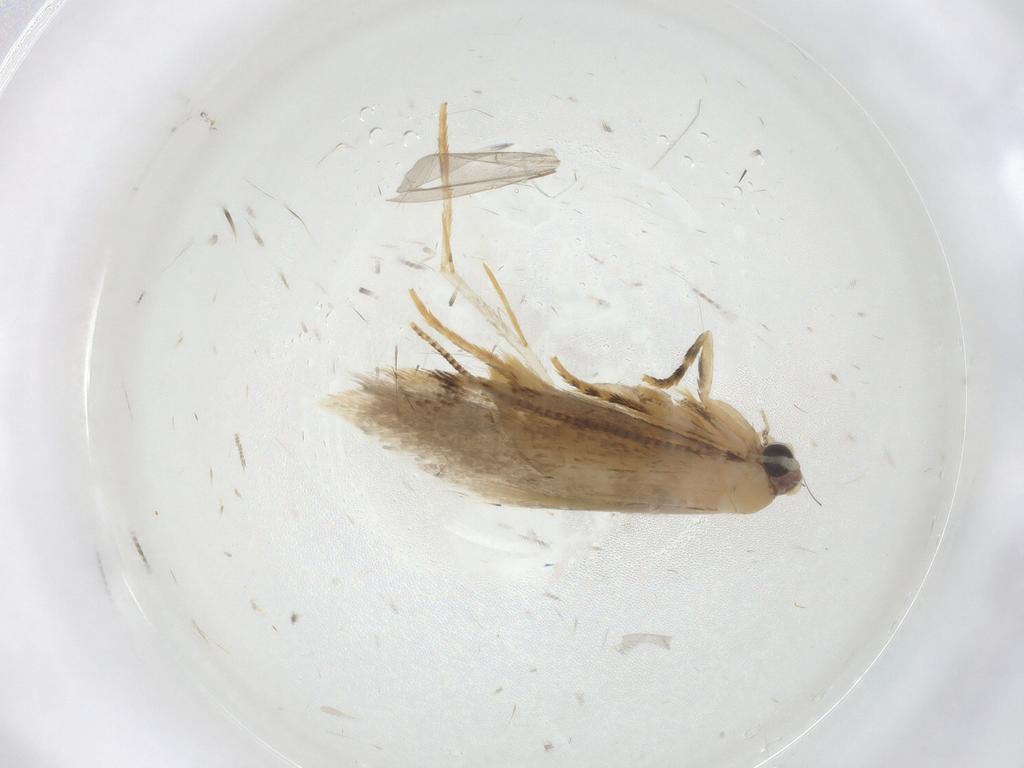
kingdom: Animalia
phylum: Arthropoda
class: Insecta
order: Lepidoptera
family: Tineidae
